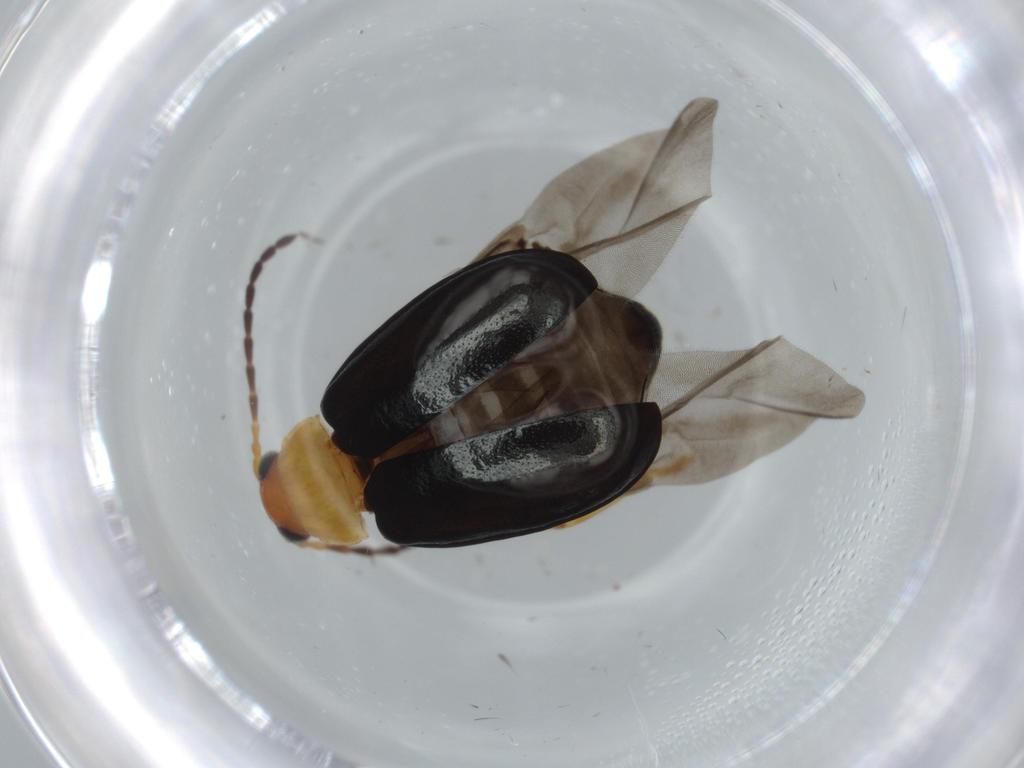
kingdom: Animalia
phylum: Arthropoda
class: Insecta
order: Coleoptera
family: Chrysomelidae
